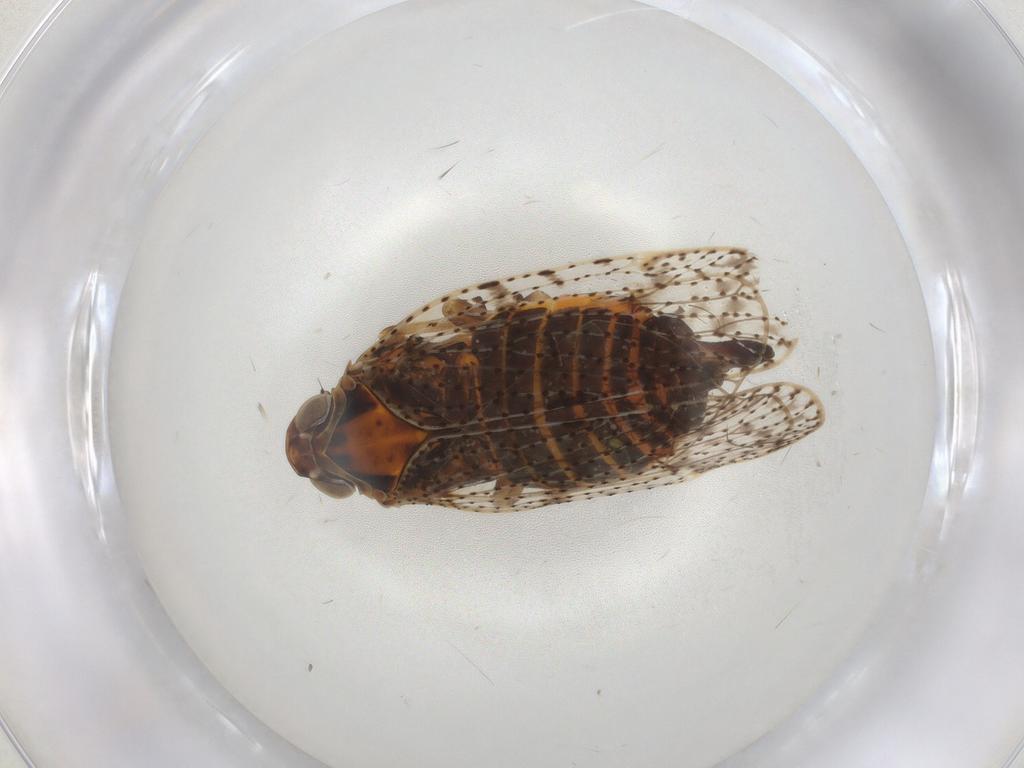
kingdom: Animalia
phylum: Arthropoda
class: Insecta
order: Hemiptera
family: Cixiidae
